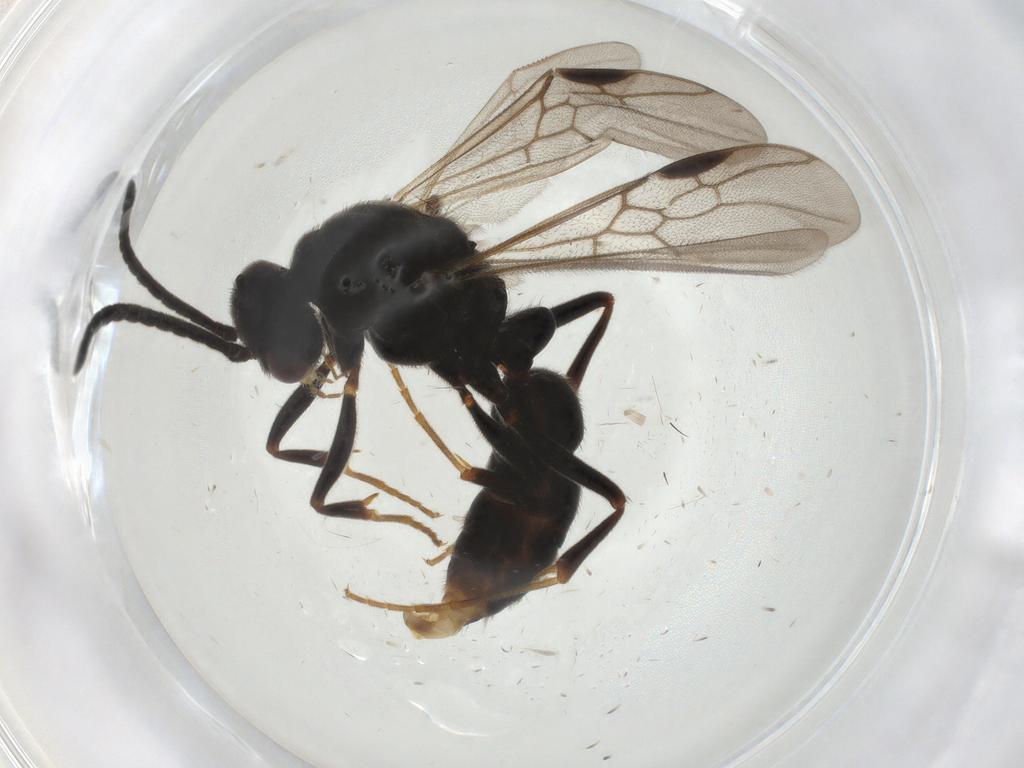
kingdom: Animalia
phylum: Arthropoda
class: Insecta
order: Hymenoptera
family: Formicidae
